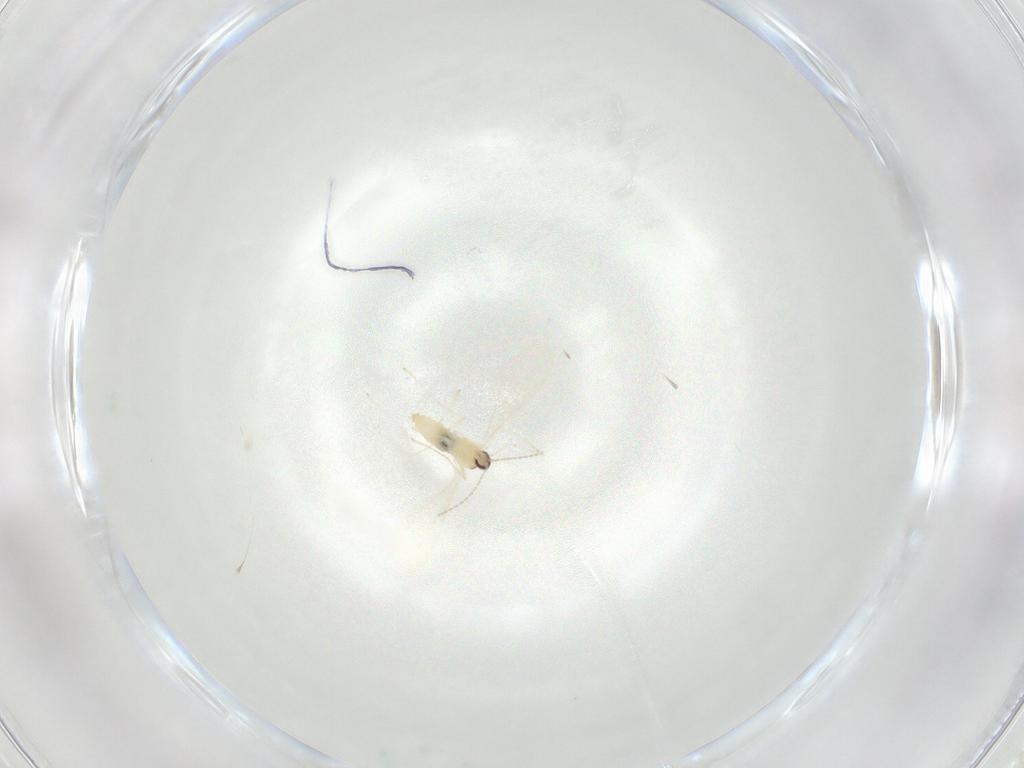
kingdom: Animalia
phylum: Arthropoda
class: Insecta
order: Diptera
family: Cecidomyiidae
